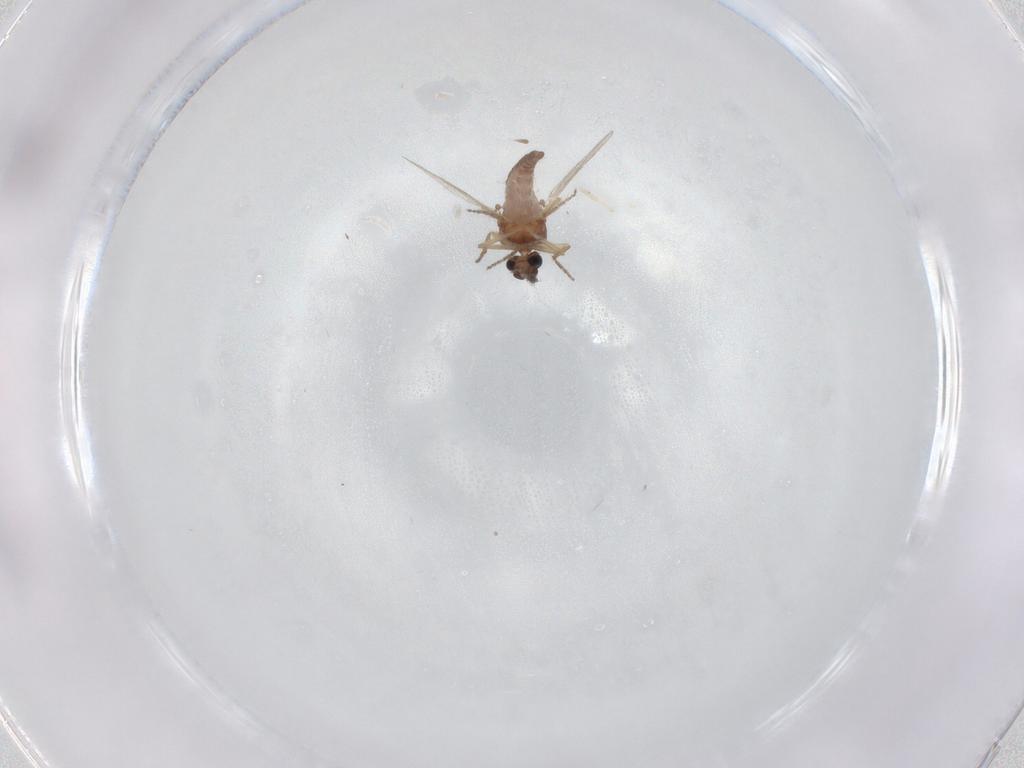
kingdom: Animalia
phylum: Arthropoda
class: Insecta
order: Diptera
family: Ceratopogonidae
